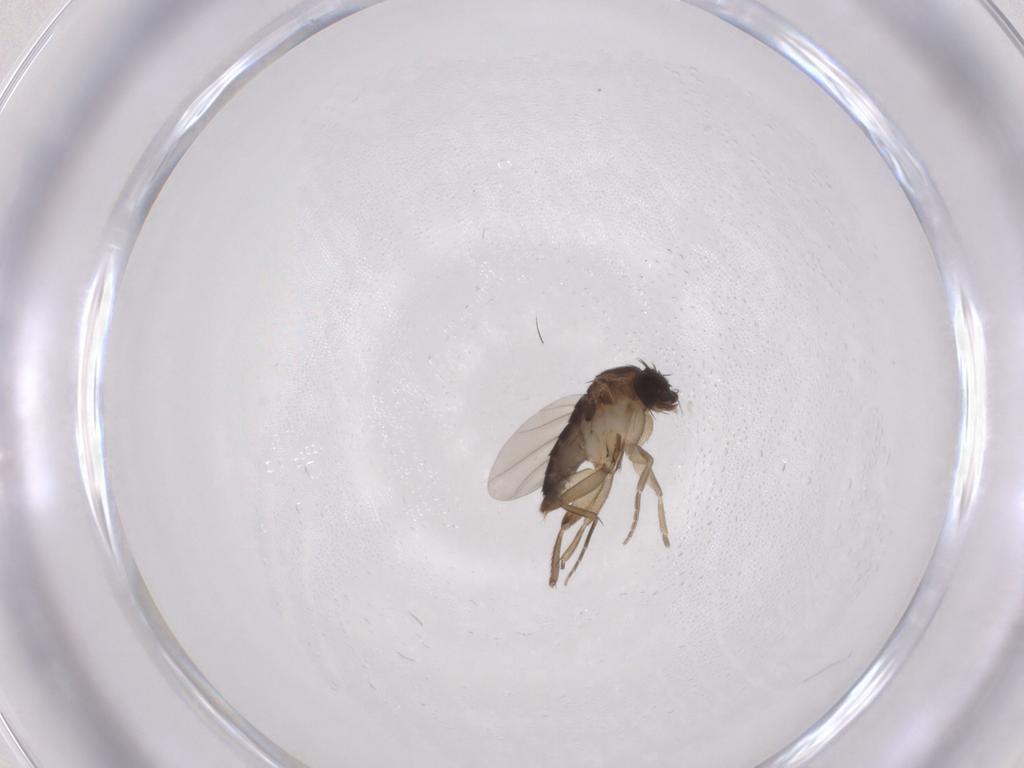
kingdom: Animalia
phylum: Arthropoda
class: Insecta
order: Diptera
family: Phoridae
